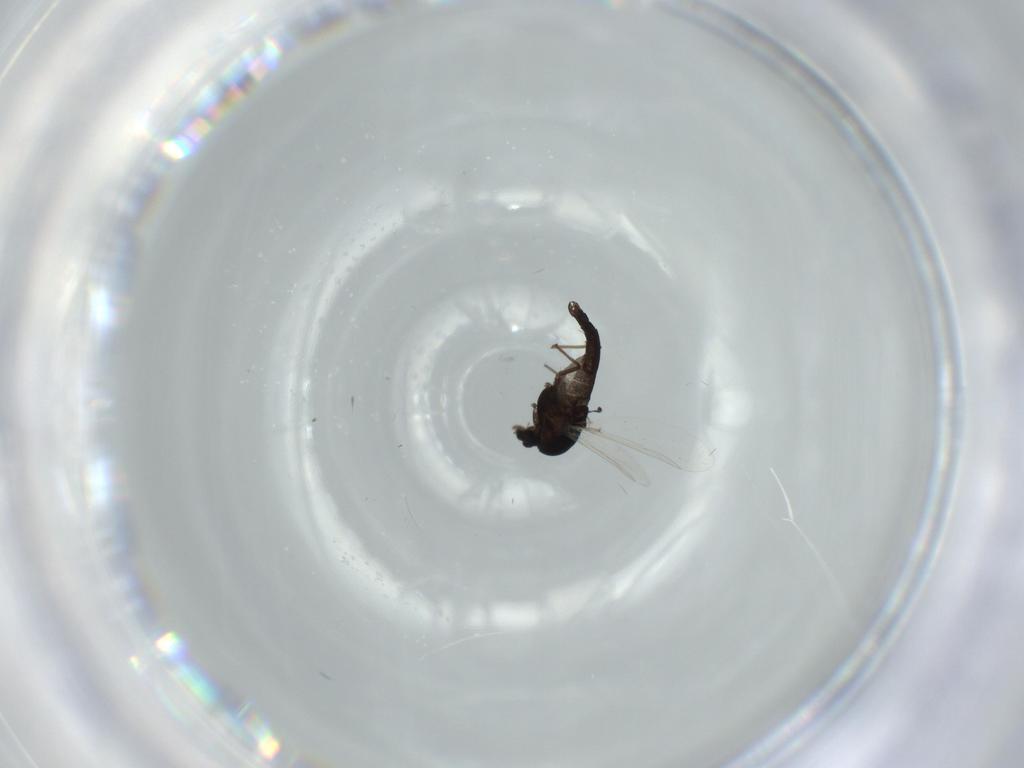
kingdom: Animalia
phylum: Arthropoda
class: Insecta
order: Diptera
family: Chironomidae
